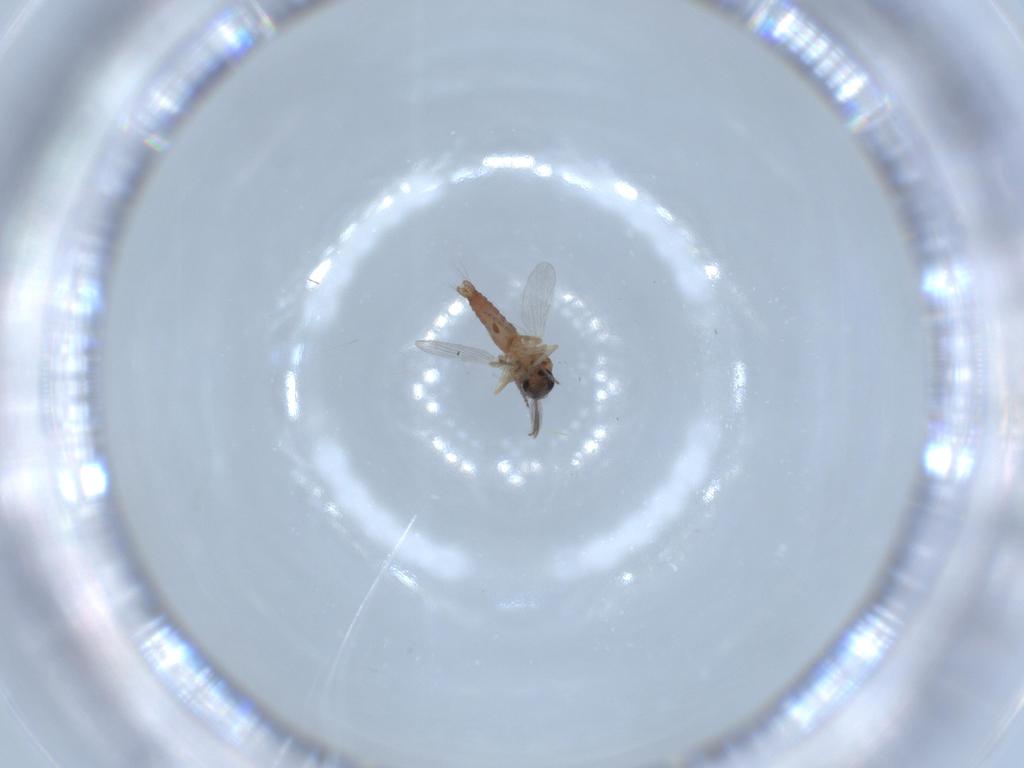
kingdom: Animalia
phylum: Arthropoda
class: Insecta
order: Diptera
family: Ceratopogonidae
